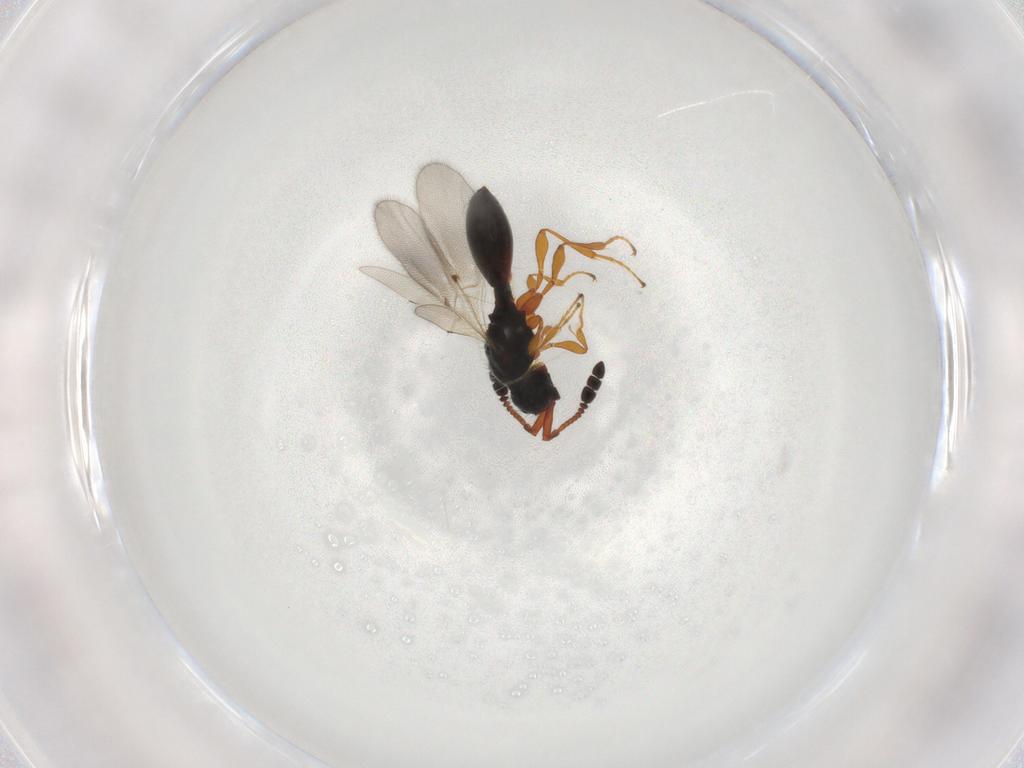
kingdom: Animalia
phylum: Arthropoda
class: Insecta
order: Hymenoptera
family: Diapriidae
